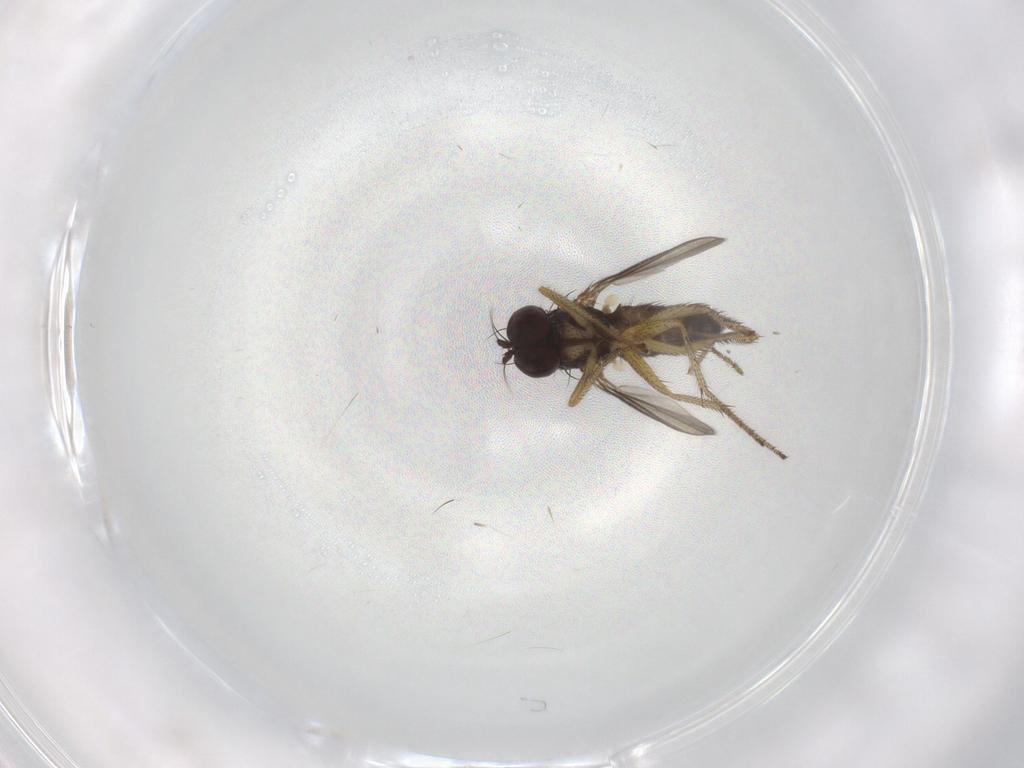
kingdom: Animalia
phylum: Arthropoda
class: Insecta
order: Diptera
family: Chironomidae
